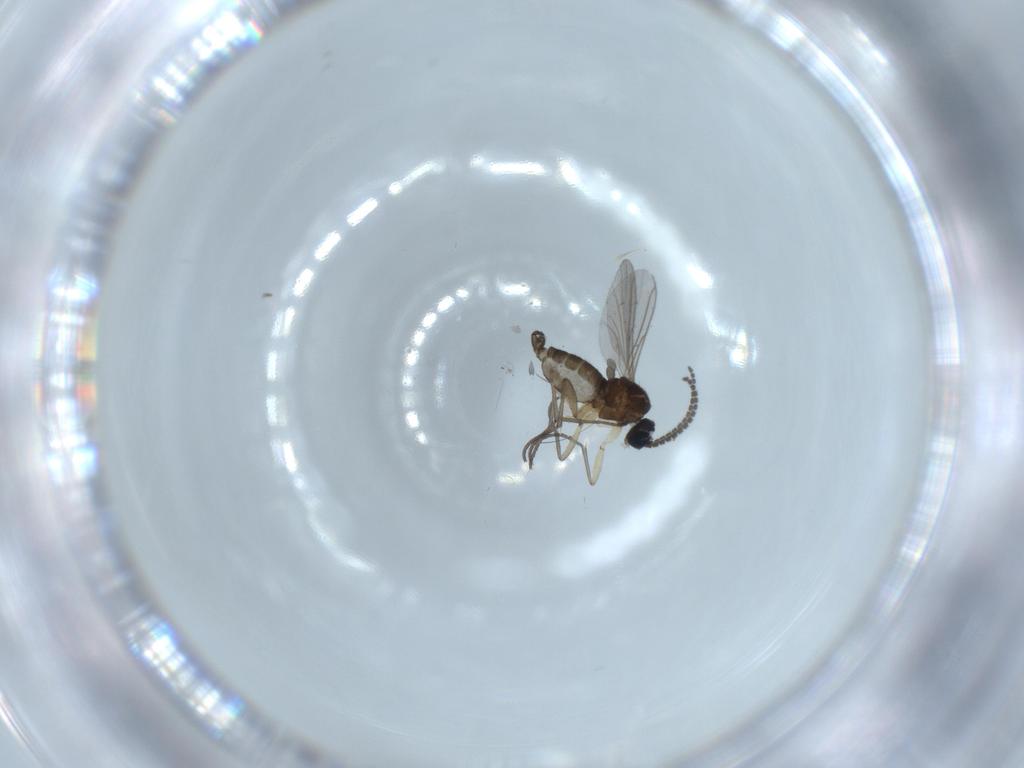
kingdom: Animalia
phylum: Arthropoda
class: Insecta
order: Diptera
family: Sciaridae
